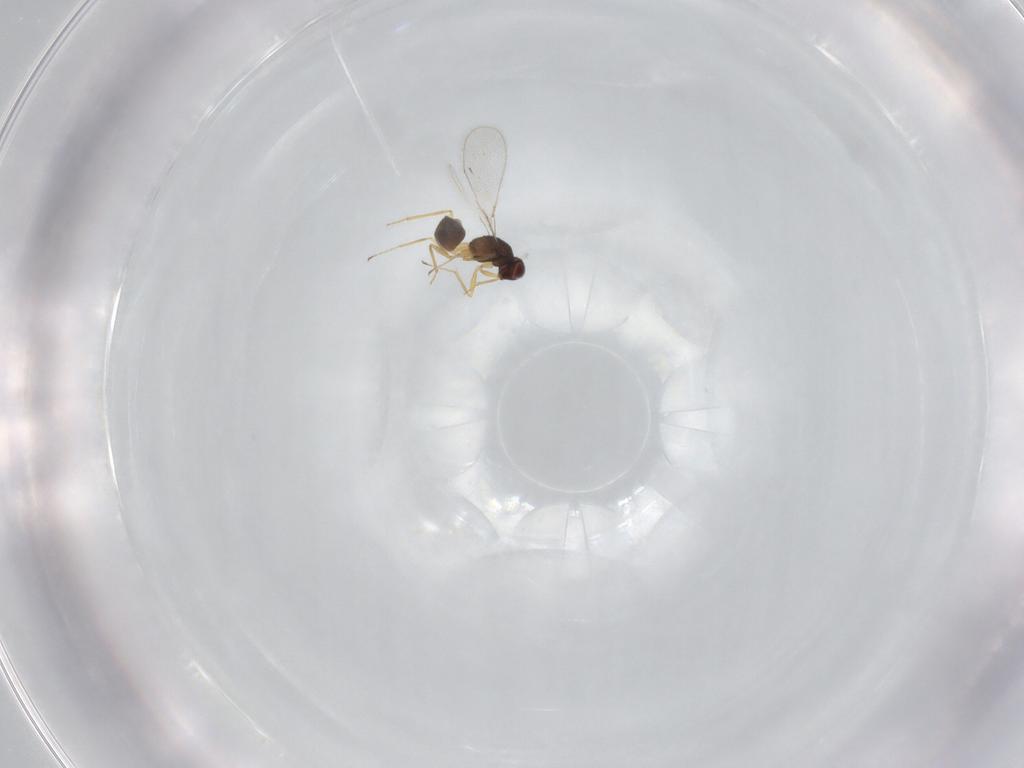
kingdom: Animalia
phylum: Arthropoda
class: Insecta
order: Hymenoptera
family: Mymaridae
